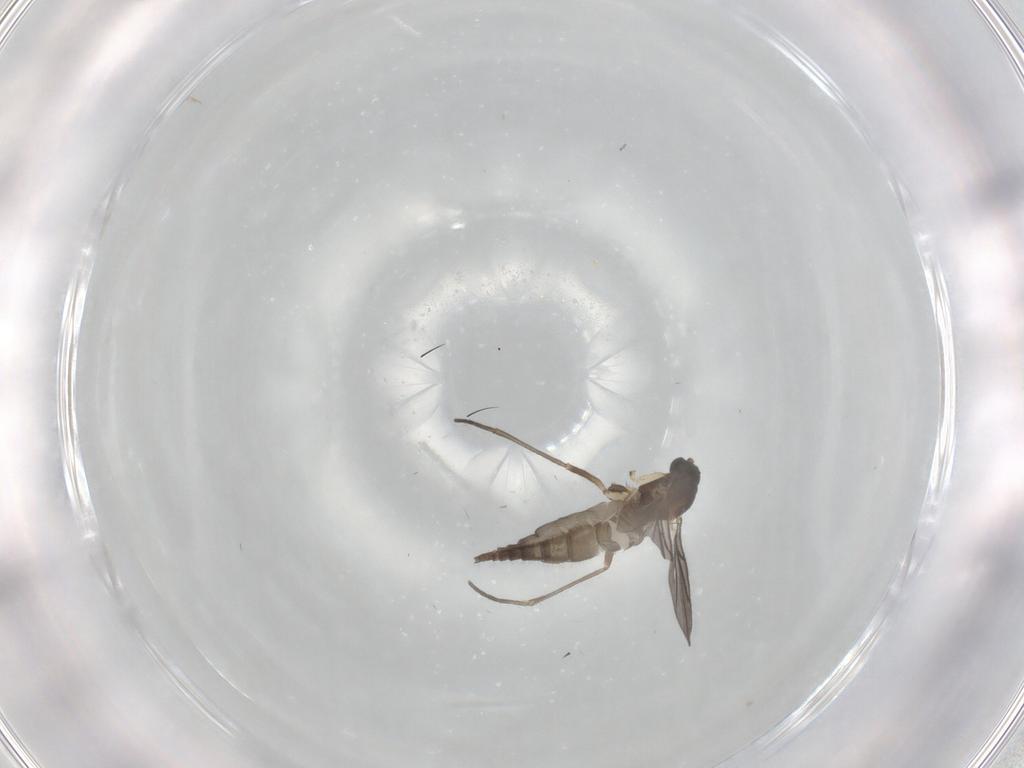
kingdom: Animalia
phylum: Arthropoda
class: Insecta
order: Diptera
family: Sciaridae
